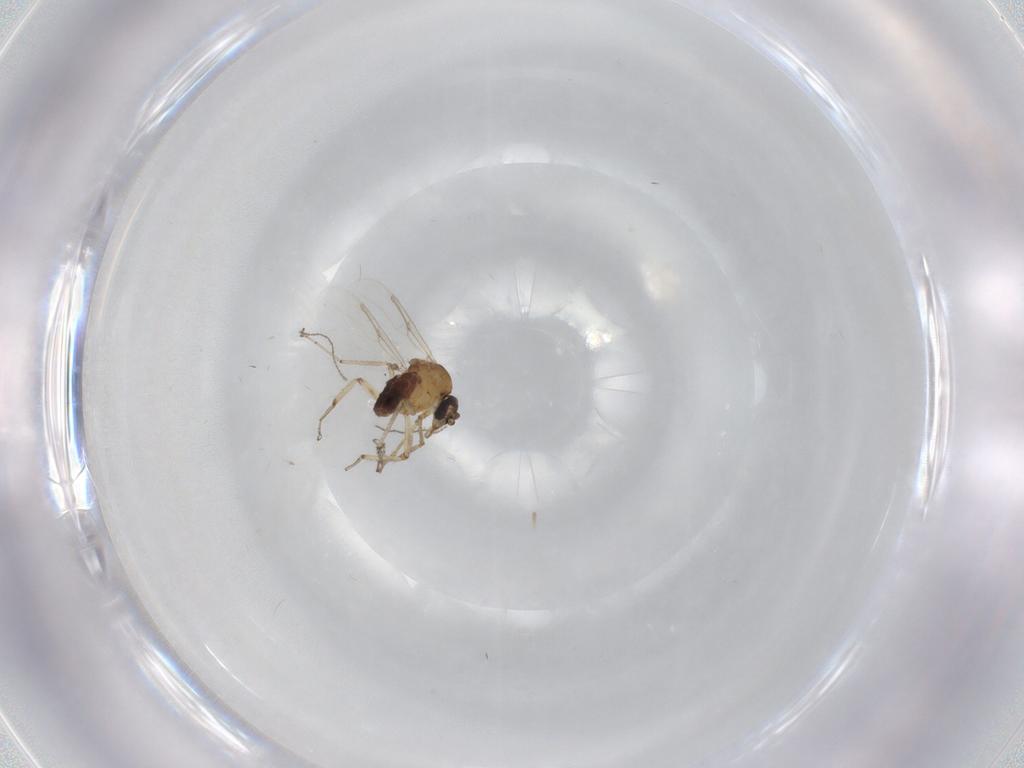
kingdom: Animalia
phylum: Arthropoda
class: Insecta
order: Diptera
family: Ceratopogonidae
